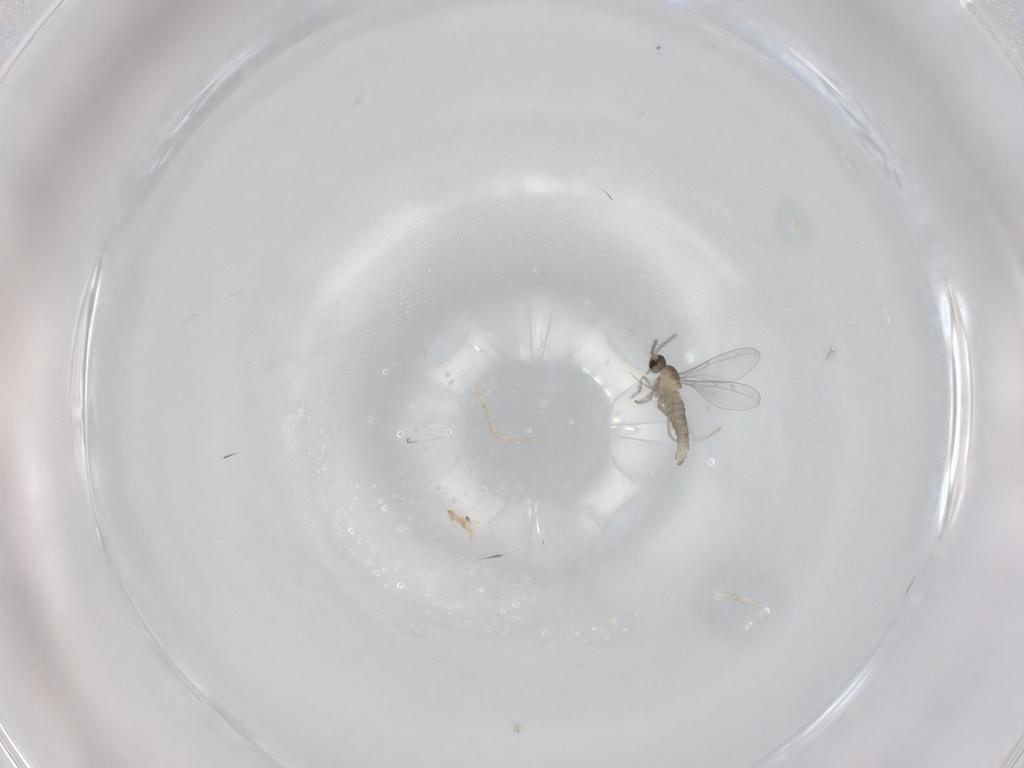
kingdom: Animalia
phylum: Arthropoda
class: Insecta
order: Diptera
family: Cecidomyiidae
